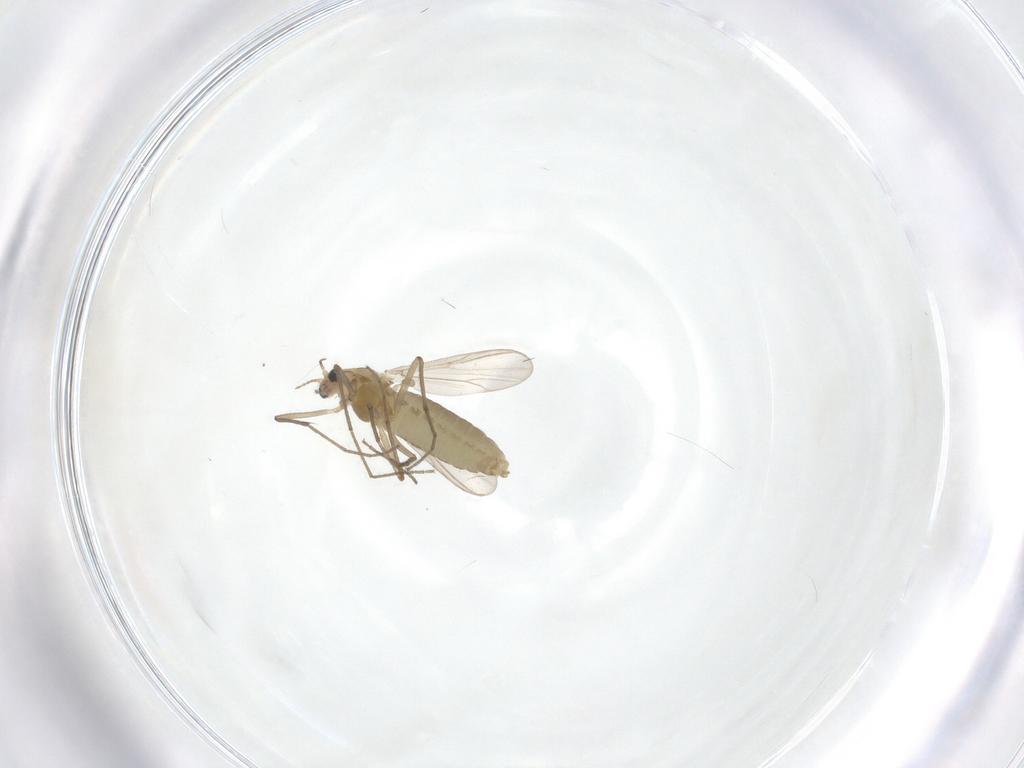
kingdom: Animalia
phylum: Arthropoda
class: Insecta
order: Diptera
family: Chironomidae
